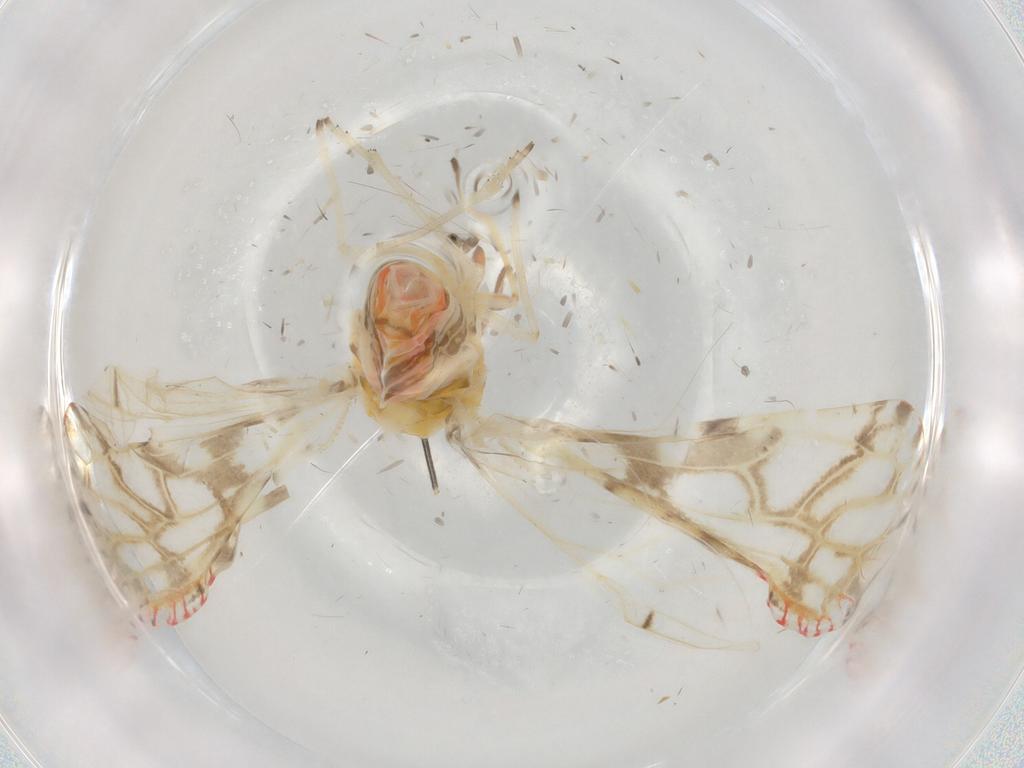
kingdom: Animalia
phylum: Arthropoda
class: Insecta
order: Hemiptera
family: Derbidae
